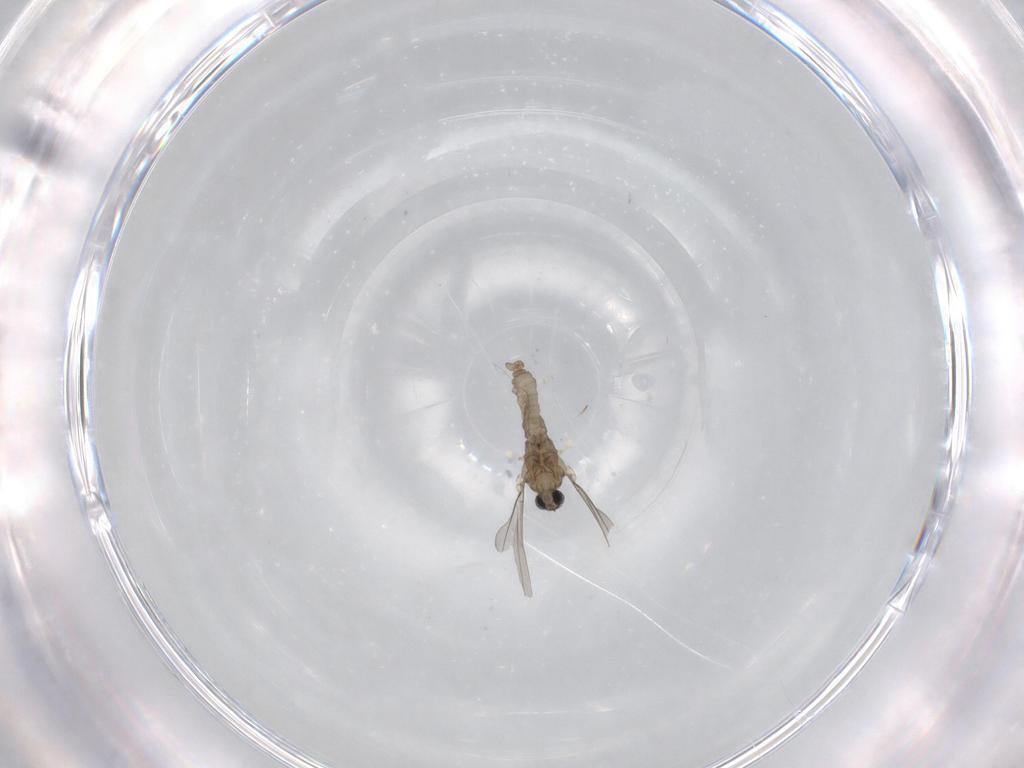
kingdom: Animalia
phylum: Arthropoda
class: Insecta
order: Diptera
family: Cecidomyiidae
